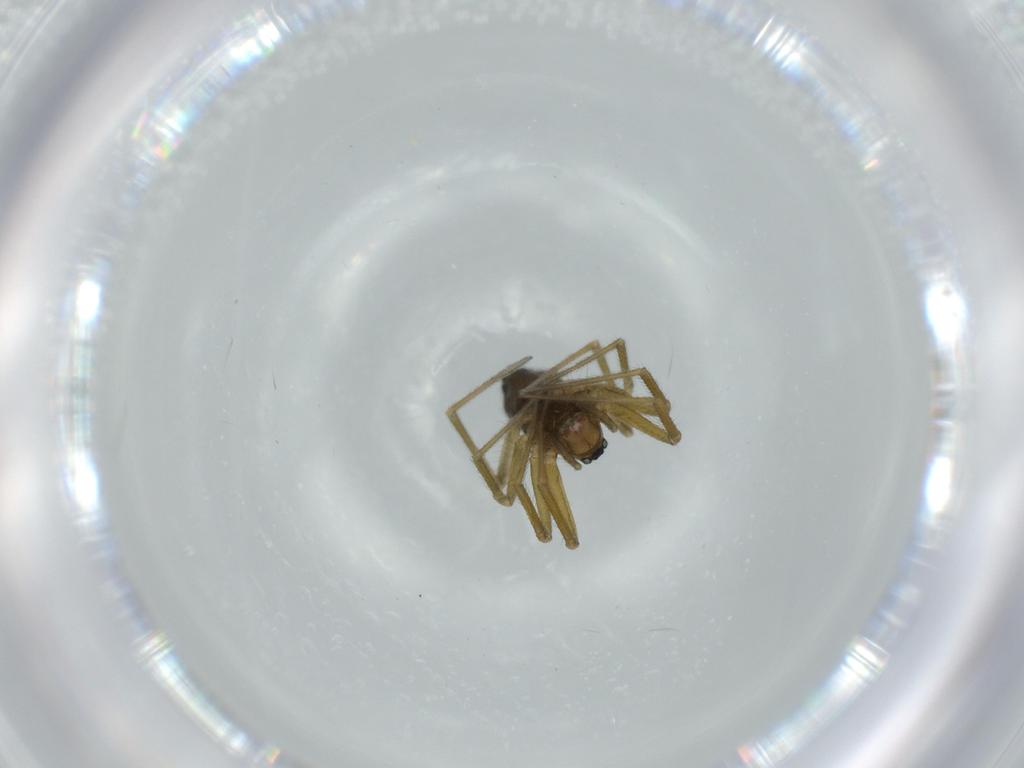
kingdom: Animalia
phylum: Arthropoda
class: Arachnida
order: Araneae
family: Linyphiidae
